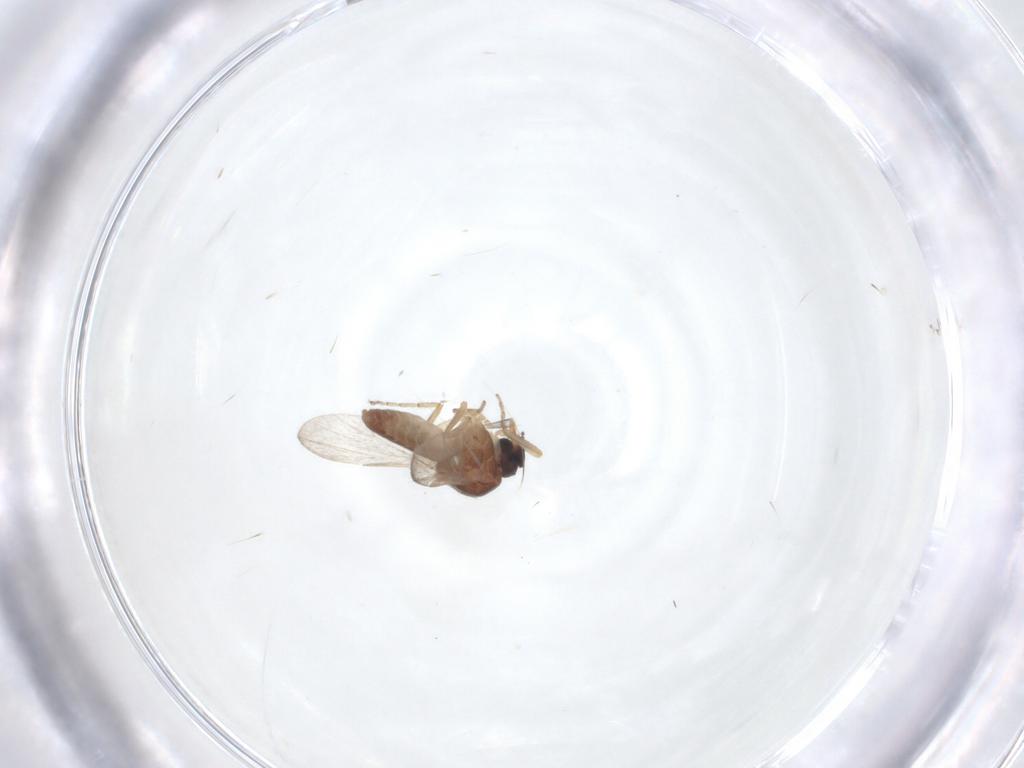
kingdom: Animalia
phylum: Arthropoda
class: Insecta
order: Diptera
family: Ceratopogonidae
